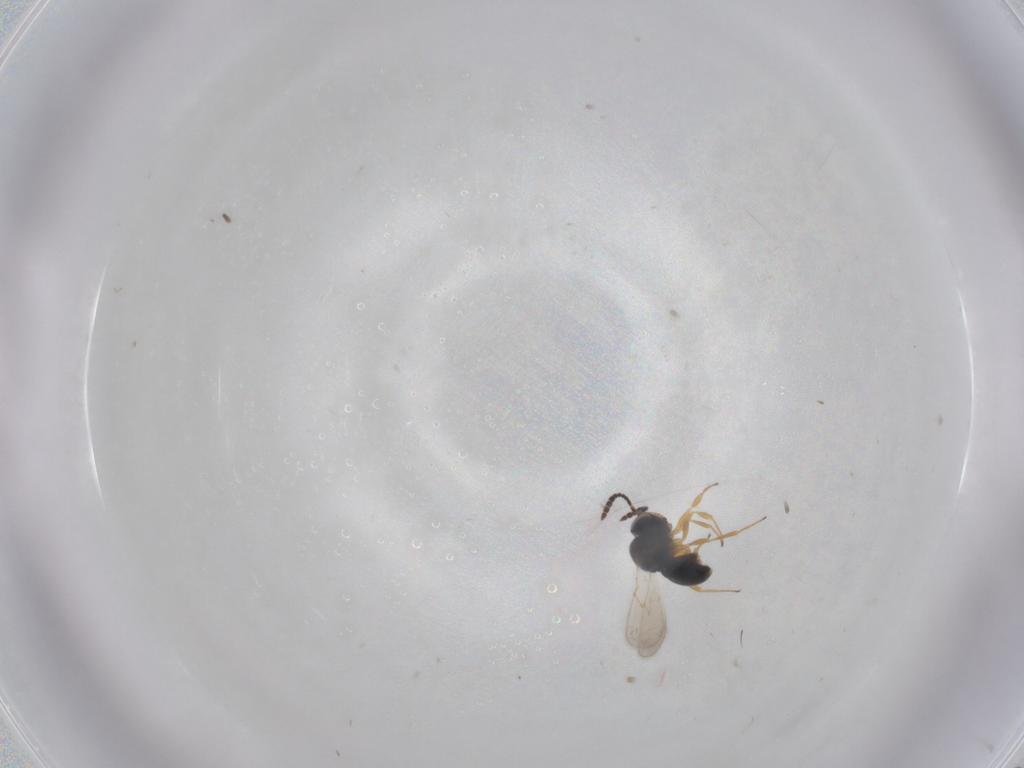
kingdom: Animalia
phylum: Arthropoda
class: Insecta
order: Hymenoptera
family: Scelionidae
